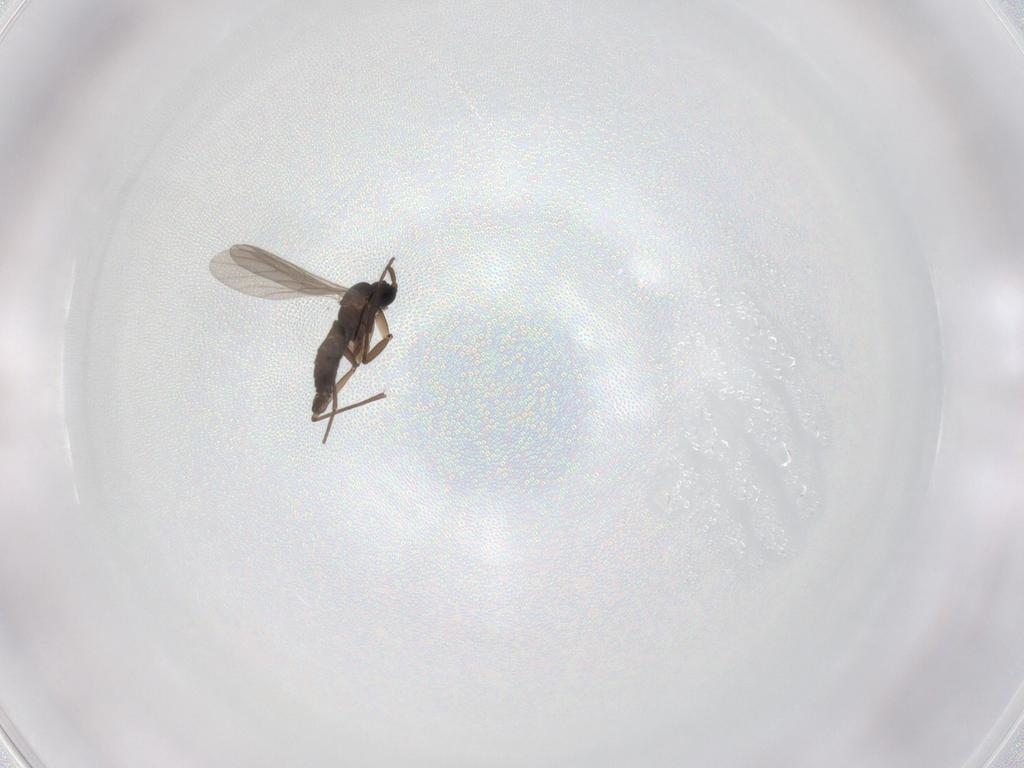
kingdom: Animalia
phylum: Arthropoda
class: Insecta
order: Diptera
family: Sciaridae
